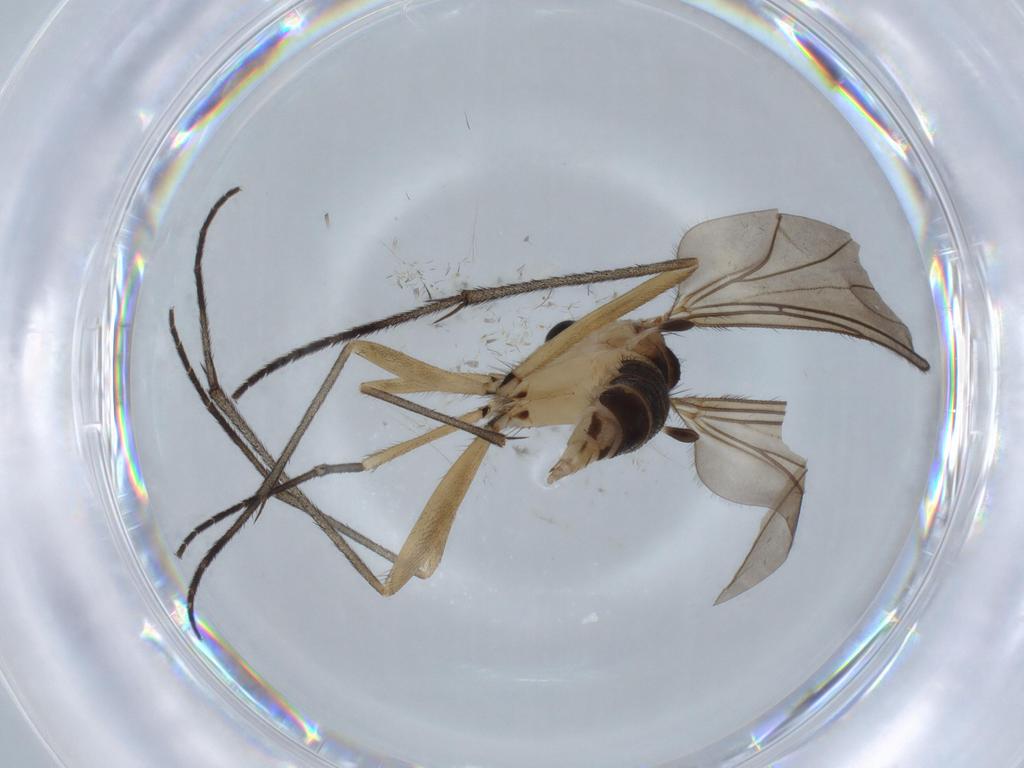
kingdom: Animalia
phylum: Arthropoda
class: Insecta
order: Diptera
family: Sciaridae
